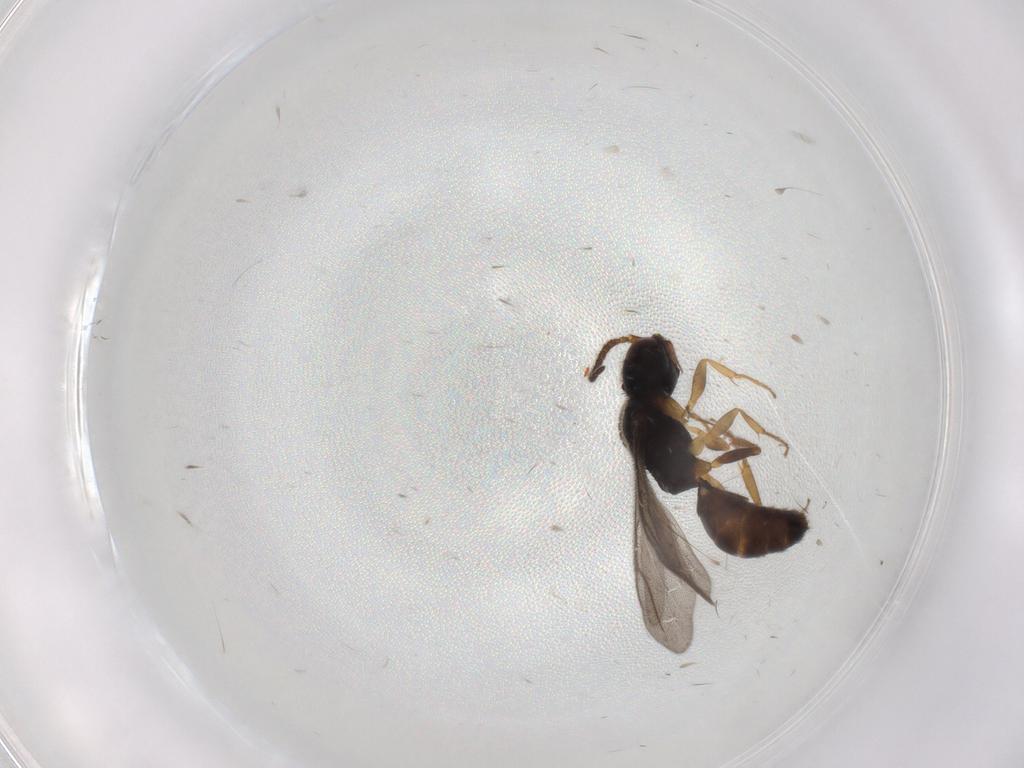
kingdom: Animalia
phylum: Arthropoda
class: Insecta
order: Hymenoptera
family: Bethylidae
